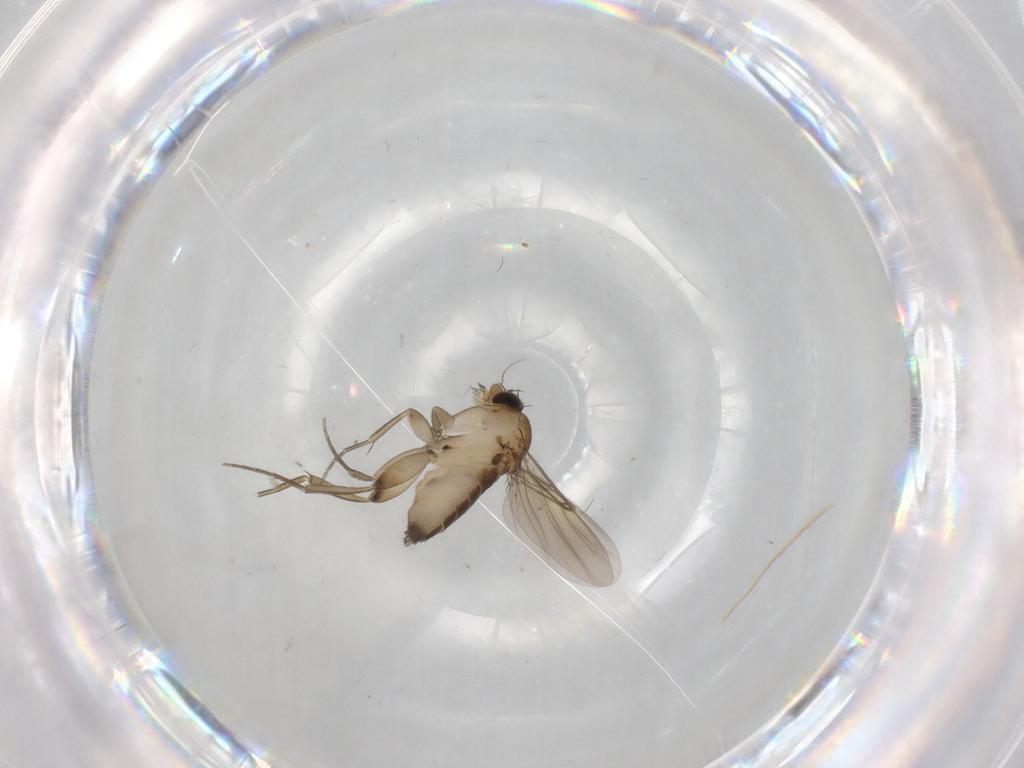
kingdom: Animalia
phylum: Arthropoda
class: Insecta
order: Diptera
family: Phoridae
